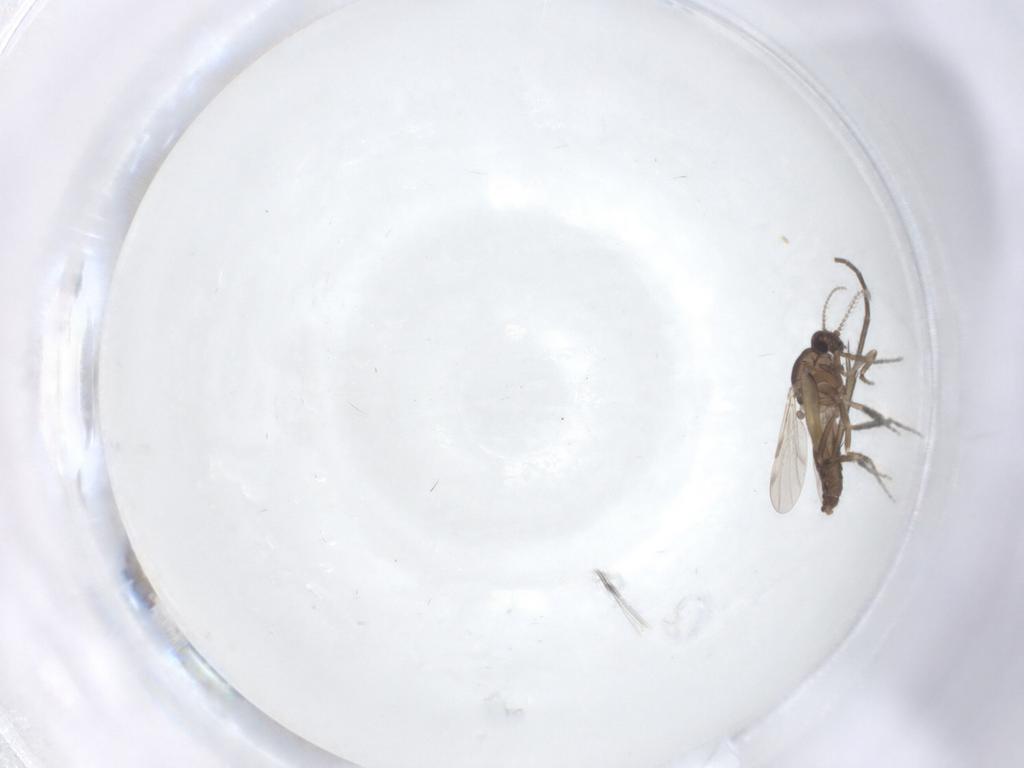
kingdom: Animalia
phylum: Arthropoda
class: Insecta
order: Diptera
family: Ceratopogonidae
